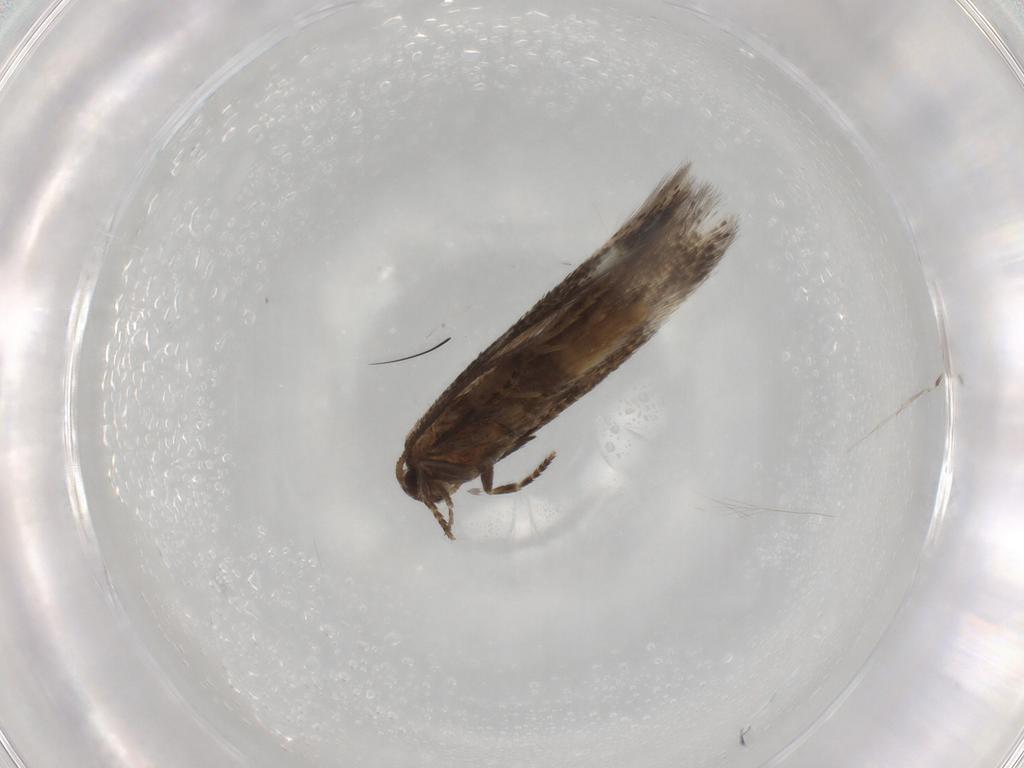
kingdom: Animalia
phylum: Arthropoda
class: Insecta
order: Lepidoptera
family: Elachistidae
